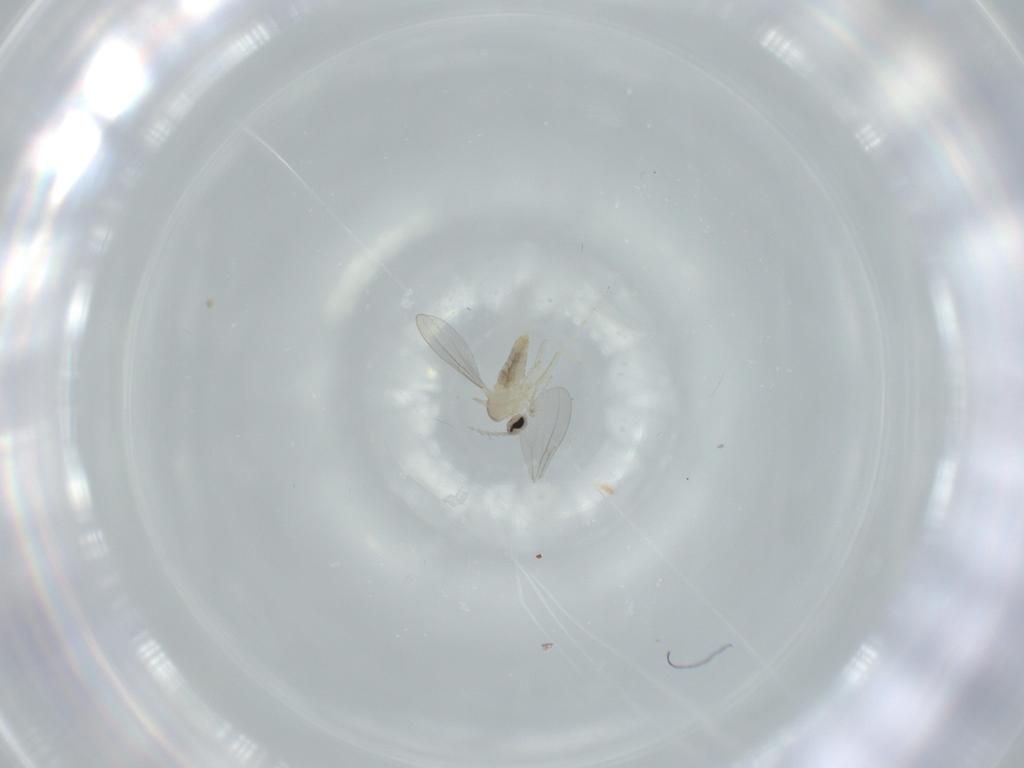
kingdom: Animalia
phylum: Arthropoda
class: Insecta
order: Diptera
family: Cecidomyiidae
